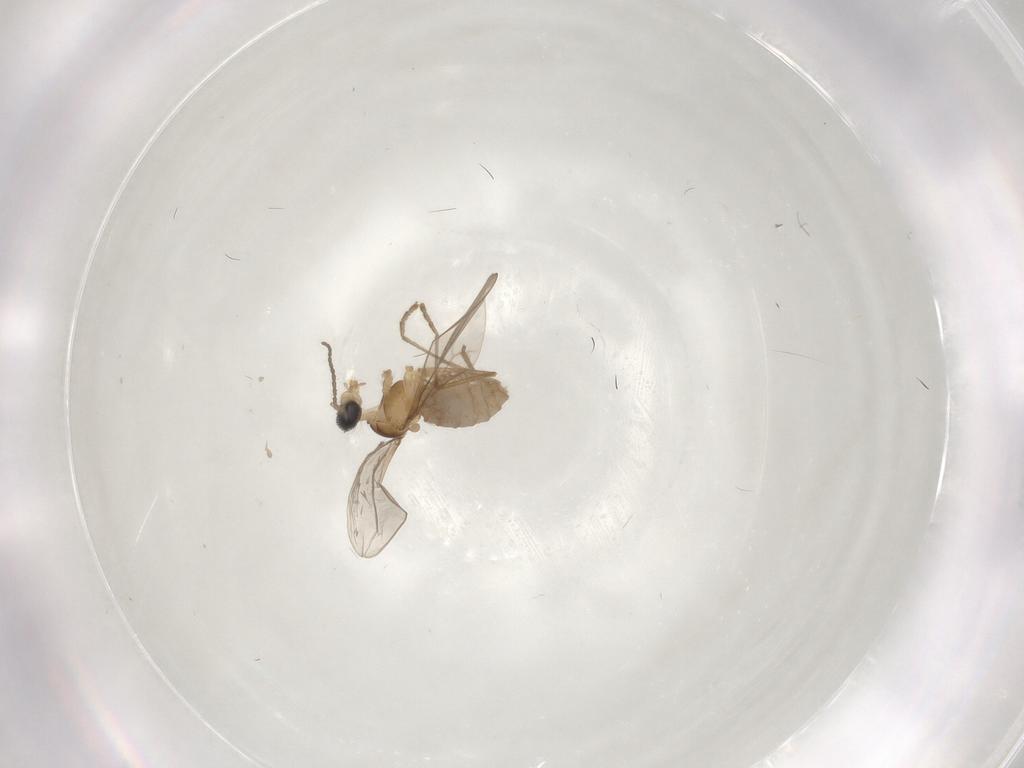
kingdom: Animalia
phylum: Arthropoda
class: Insecta
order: Diptera
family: Cecidomyiidae
